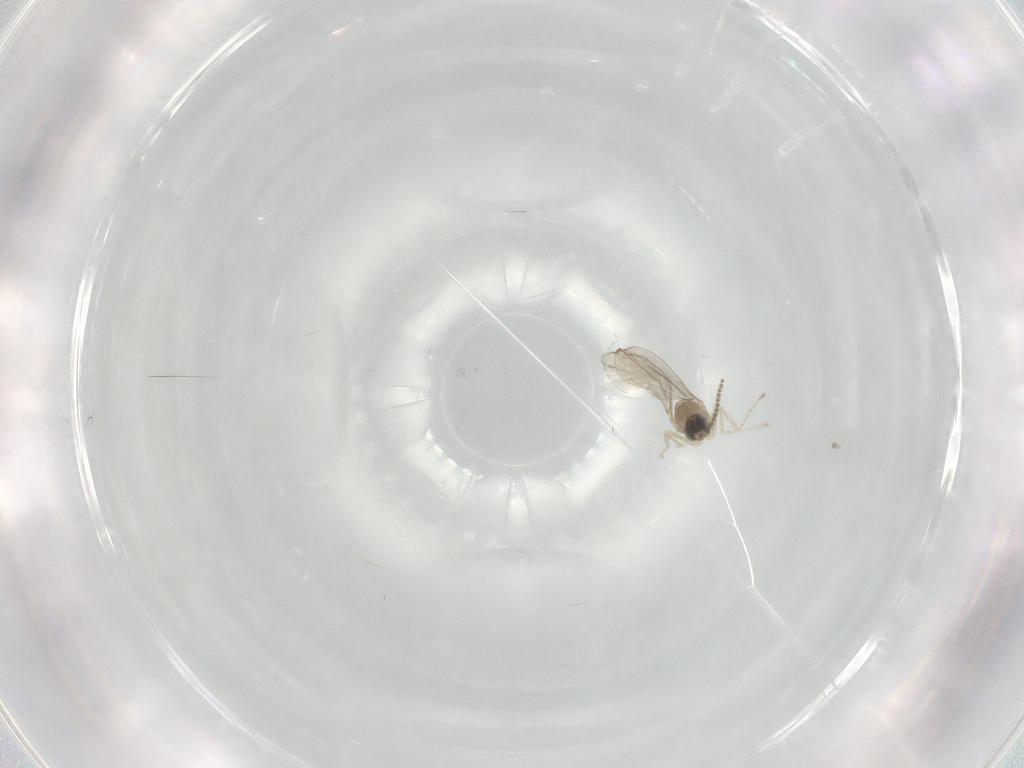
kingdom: Animalia
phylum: Arthropoda
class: Insecta
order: Diptera
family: Cecidomyiidae
